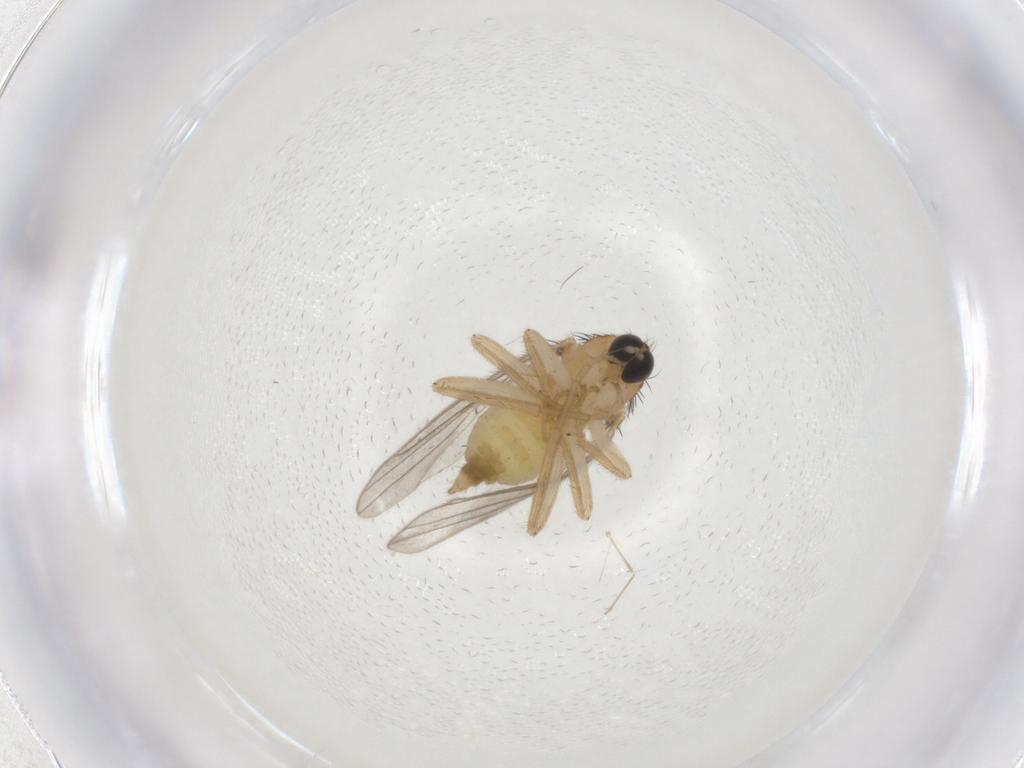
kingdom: Animalia
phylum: Arthropoda
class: Insecta
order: Diptera
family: Hybotidae
